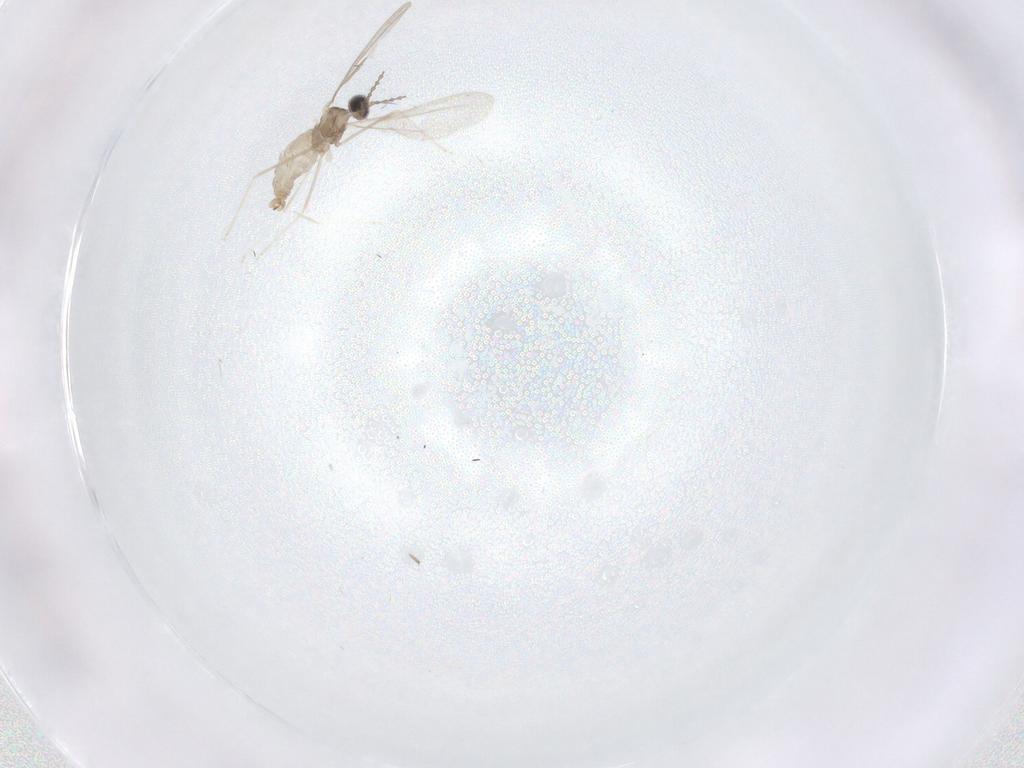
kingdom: Animalia
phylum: Arthropoda
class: Insecta
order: Diptera
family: Cecidomyiidae
